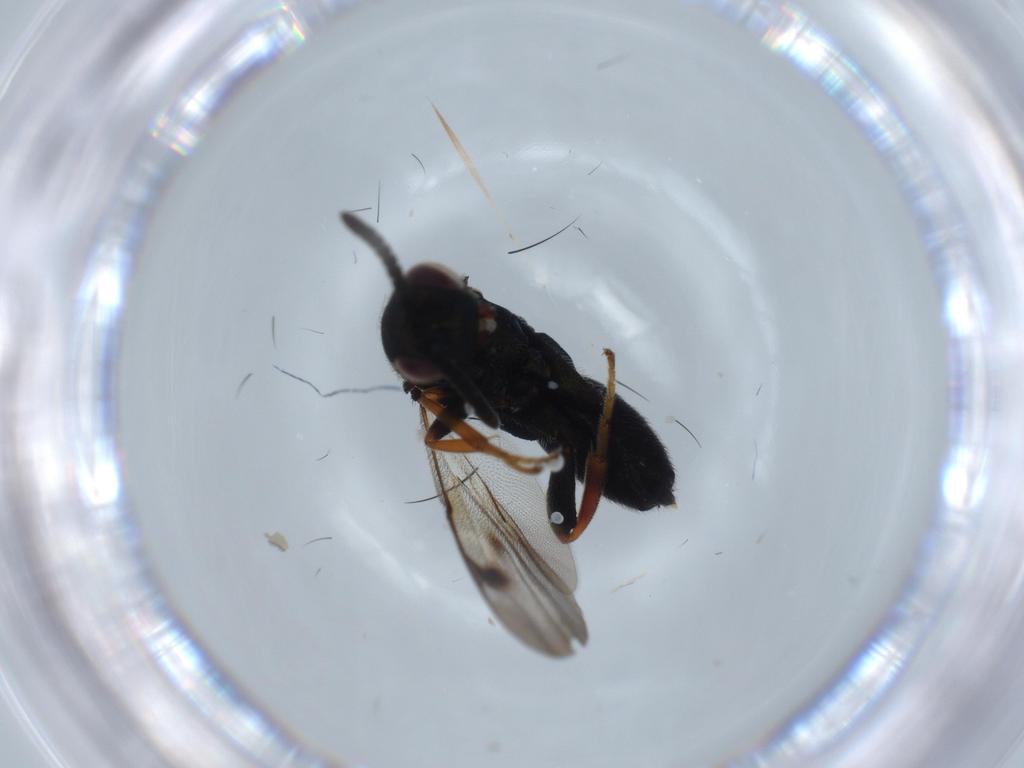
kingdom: Animalia
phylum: Arthropoda
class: Insecta
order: Hymenoptera
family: Torymidae
